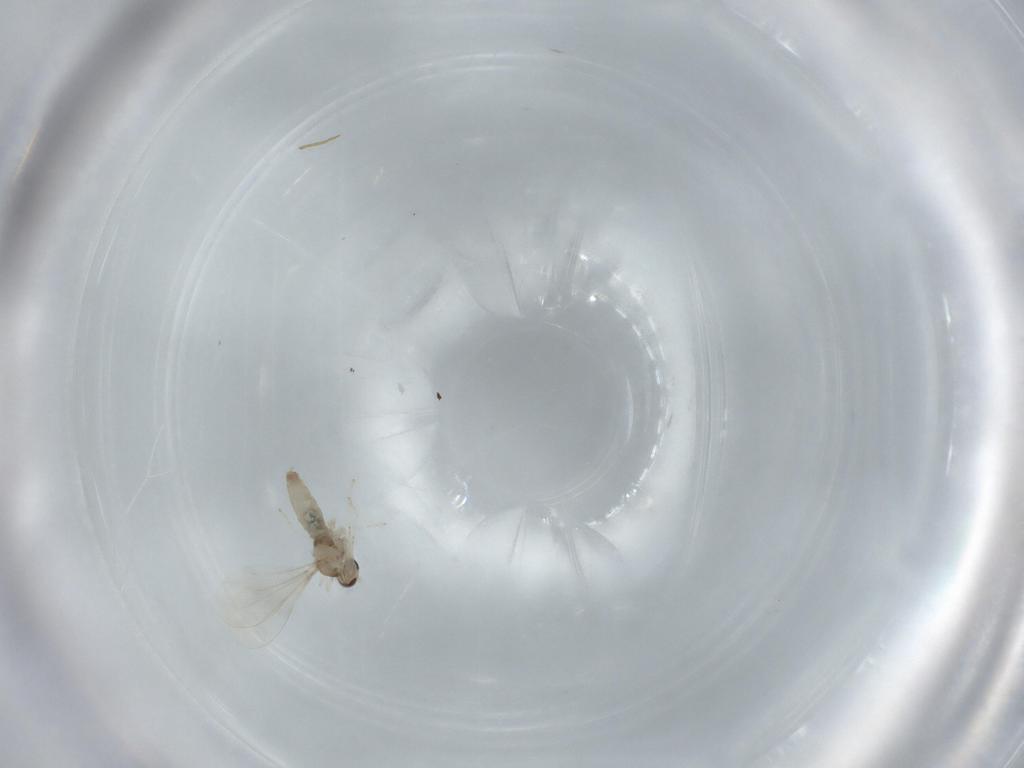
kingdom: Animalia
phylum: Arthropoda
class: Insecta
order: Diptera
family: Cecidomyiidae
